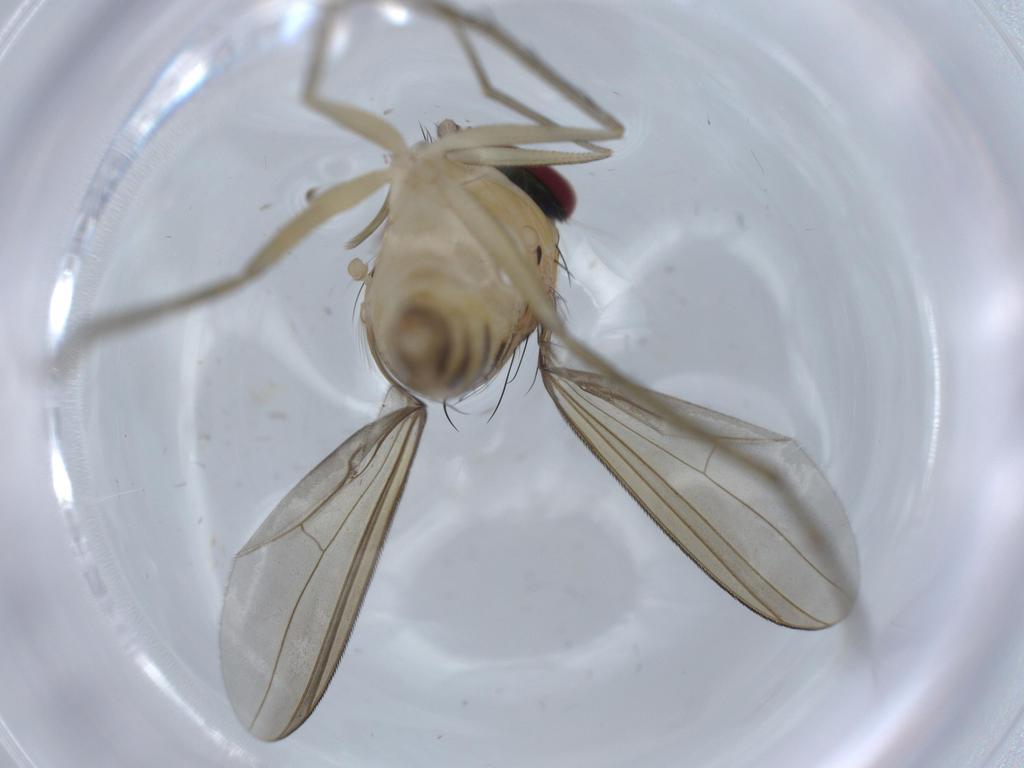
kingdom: Animalia
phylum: Arthropoda
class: Insecta
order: Diptera
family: Dolichopodidae
